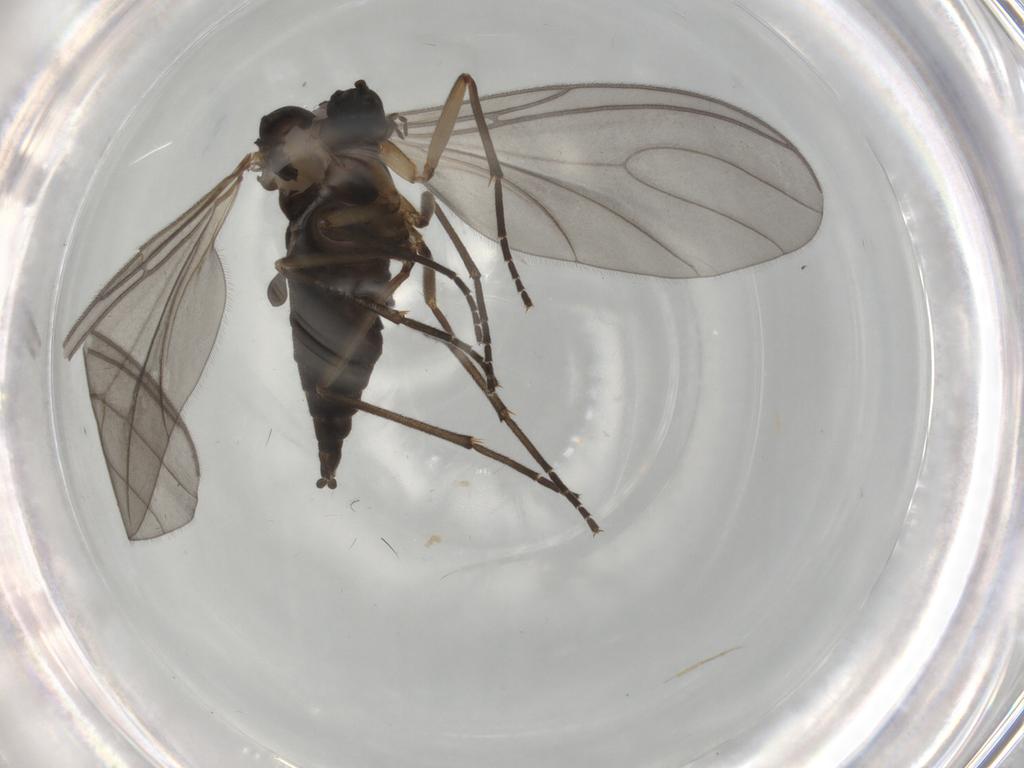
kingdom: Animalia
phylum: Arthropoda
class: Insecta
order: Diptera
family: Sciaridae
